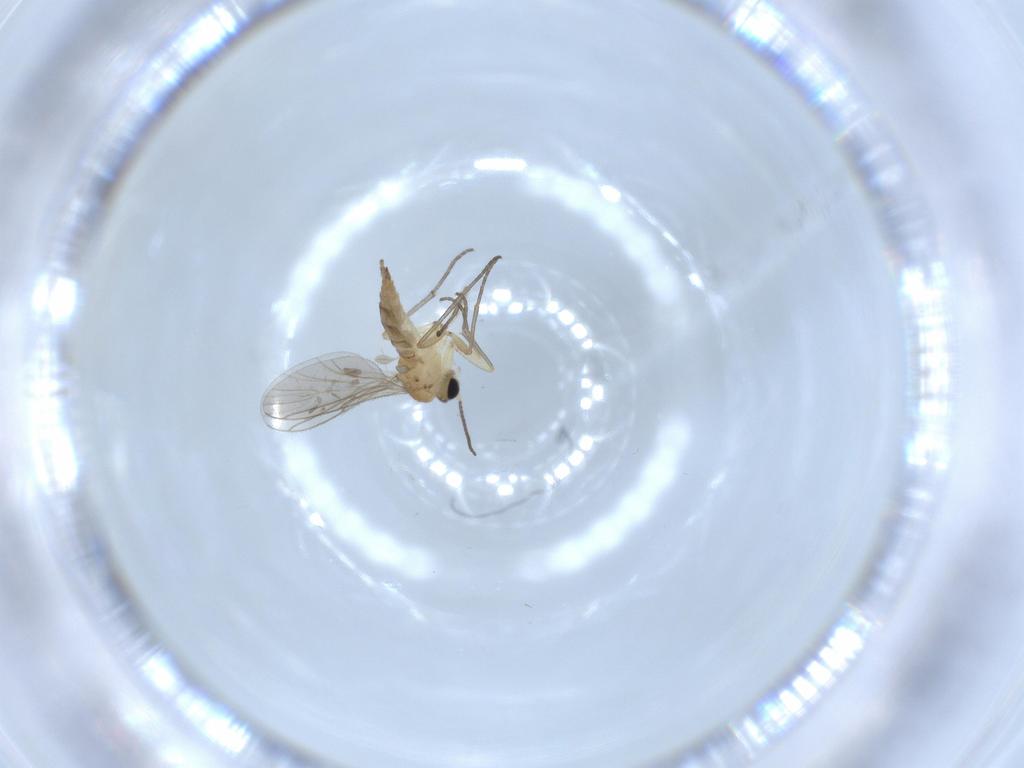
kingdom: Animalia
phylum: Arthropoda
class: Insecta
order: Diptera
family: Sciaridae
